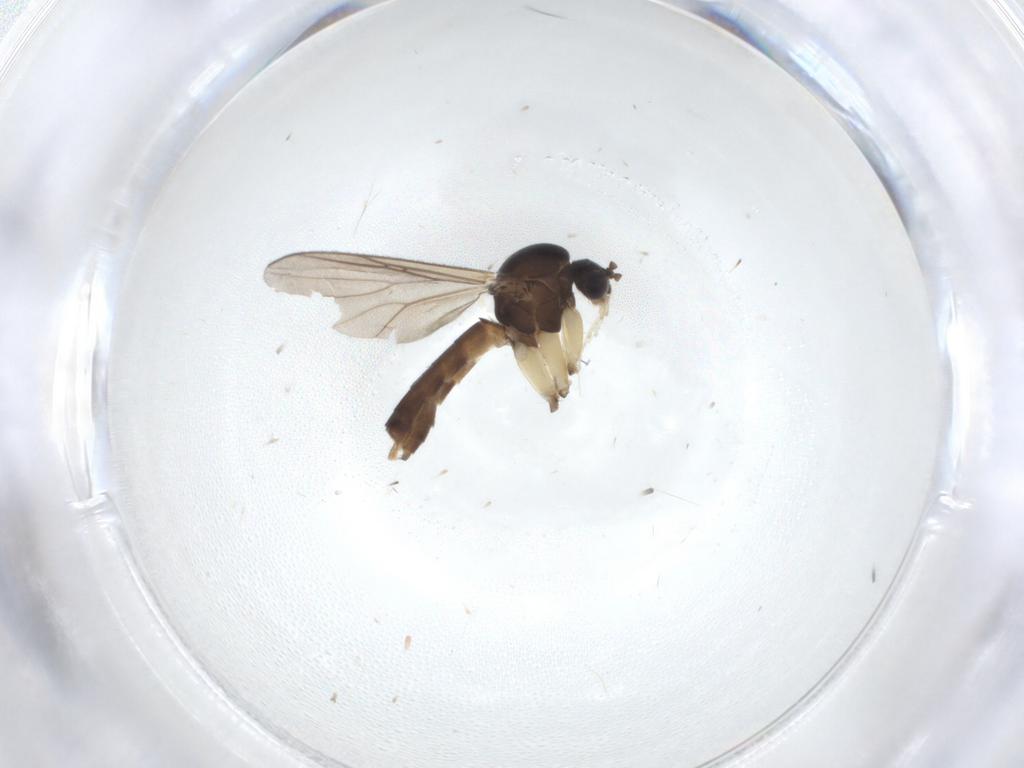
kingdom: Animalia
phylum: Arthropoda
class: Insecta
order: Diptera
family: Mycetophilidae
